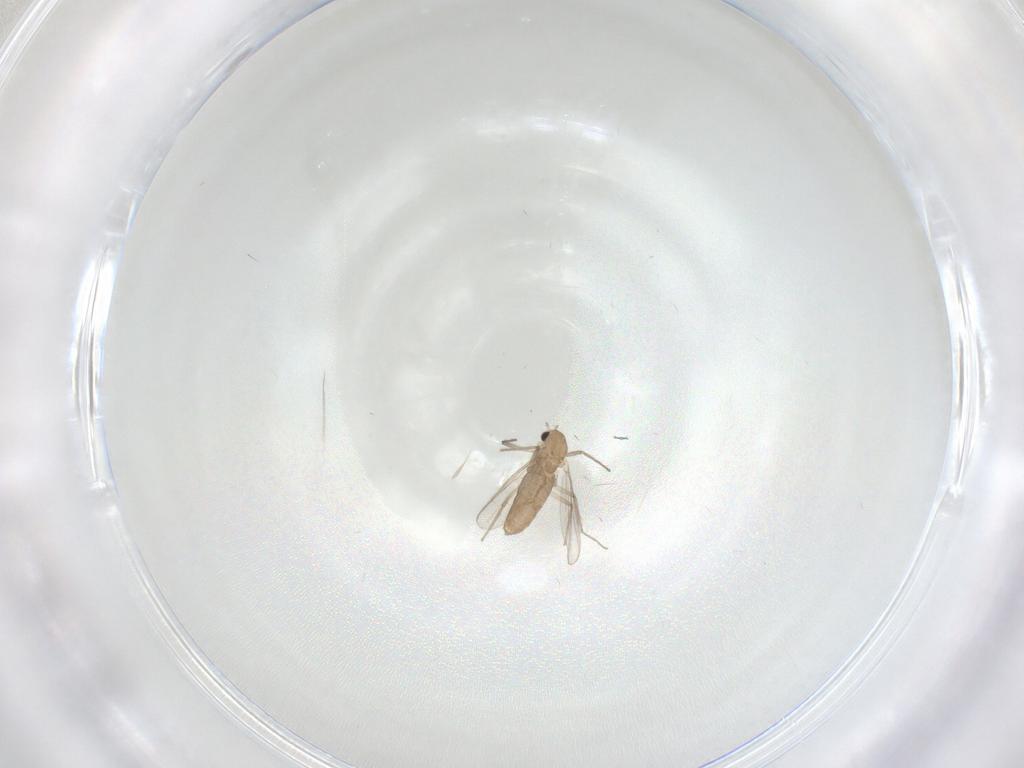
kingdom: Animalia
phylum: Arthropoda
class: Insecta
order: Diptera
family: Chironomidae
